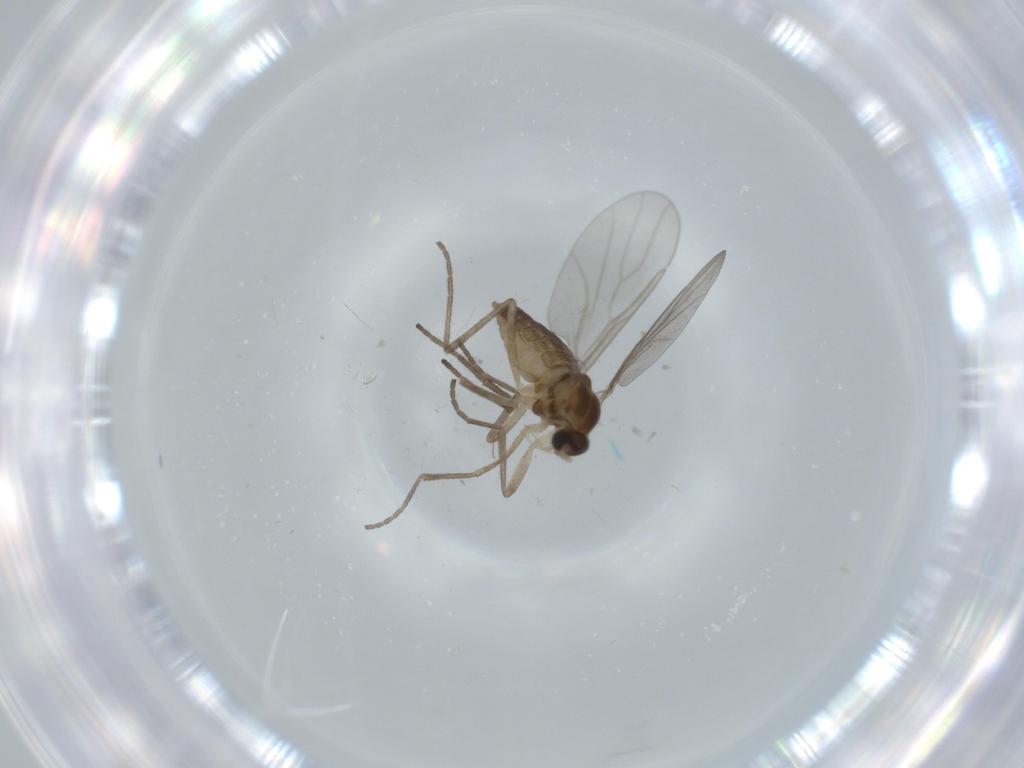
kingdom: Animalia
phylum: Arthropoda
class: Insecta
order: Diptera
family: Cecidomyiidae
